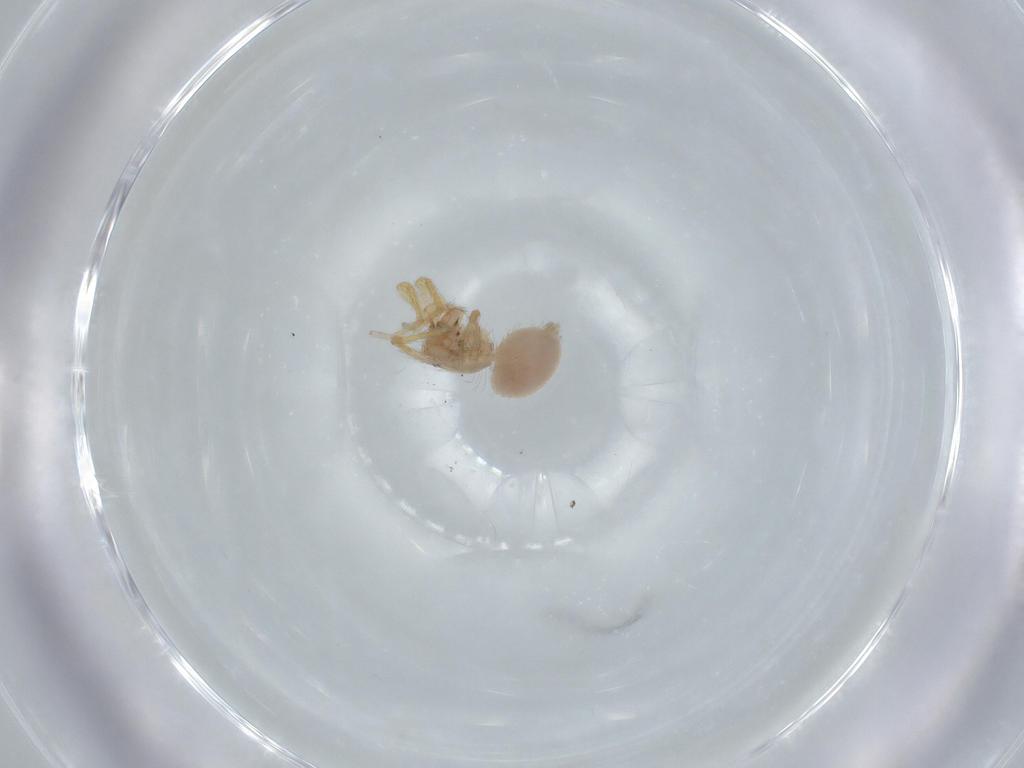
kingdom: Animalia
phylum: Arthropoda
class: Arachnida
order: Araneae
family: Oonopidae
